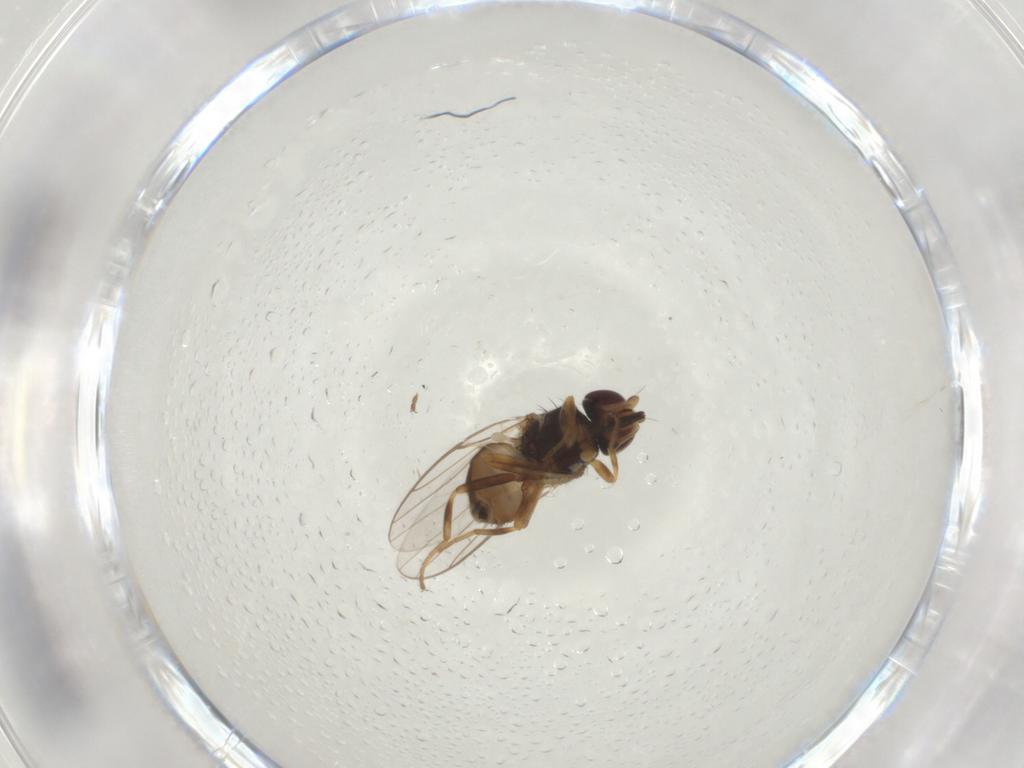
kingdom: Animalia
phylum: Arthropoda
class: Insecta
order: Diptera
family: Chloropidae
